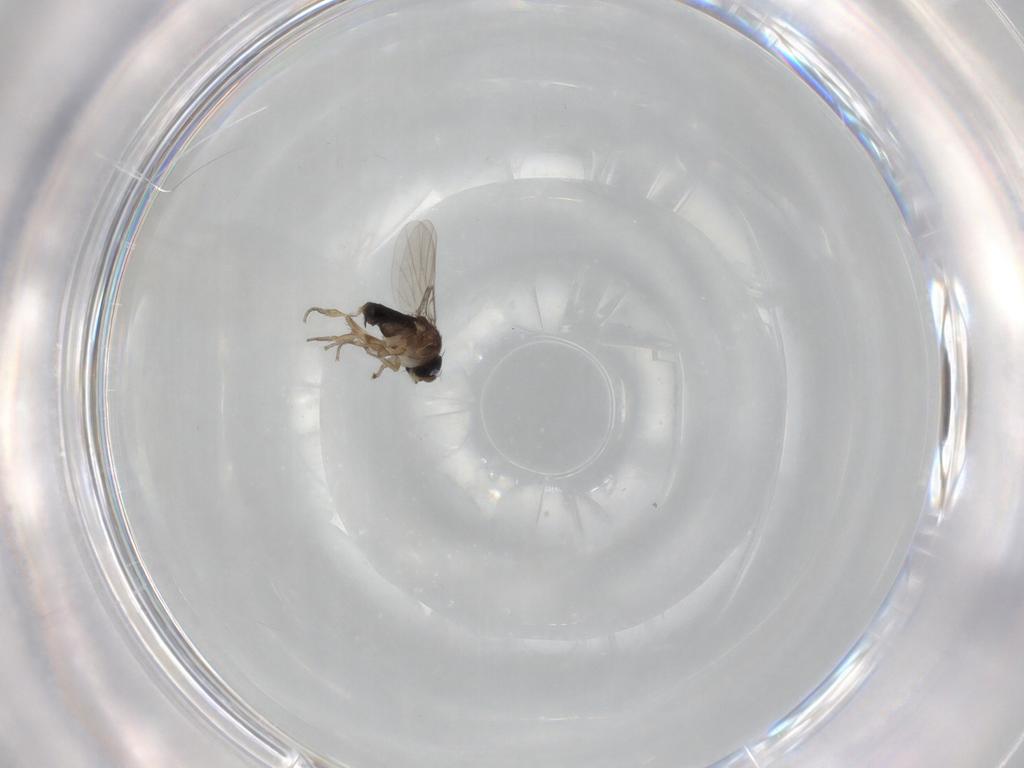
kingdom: Animalia
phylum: Arthropoda
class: Insecta
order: Diptera
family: Phoridae
